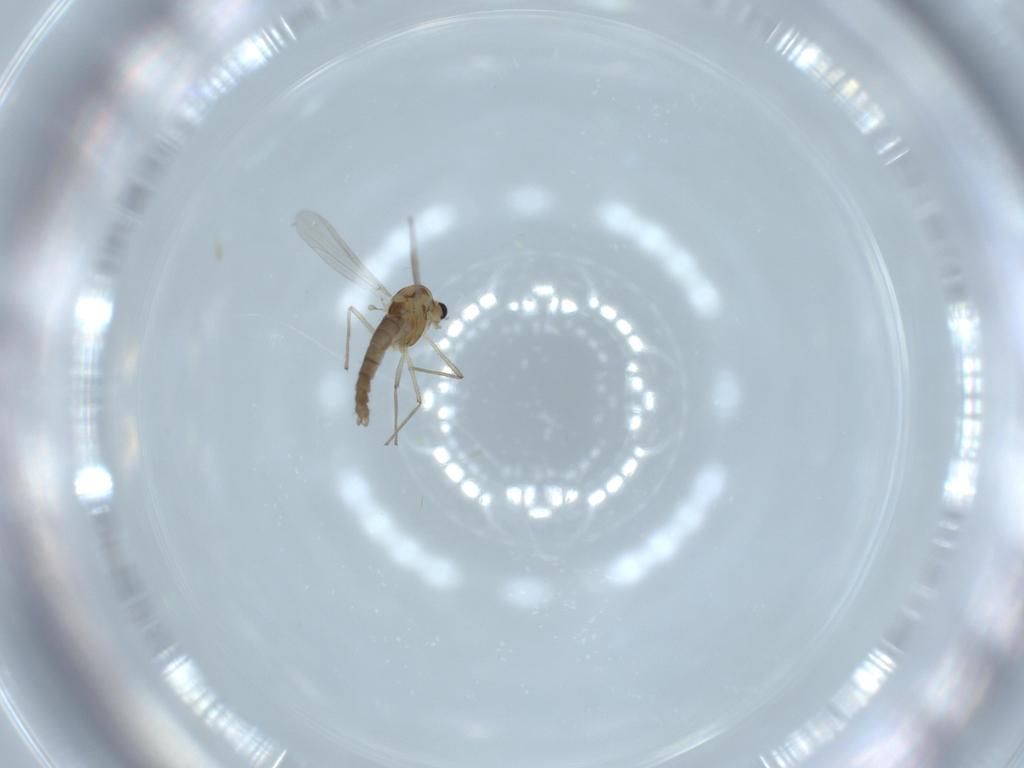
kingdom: Animalia
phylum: Arthropoda
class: Insecta
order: Diptera
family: Chironomidae
